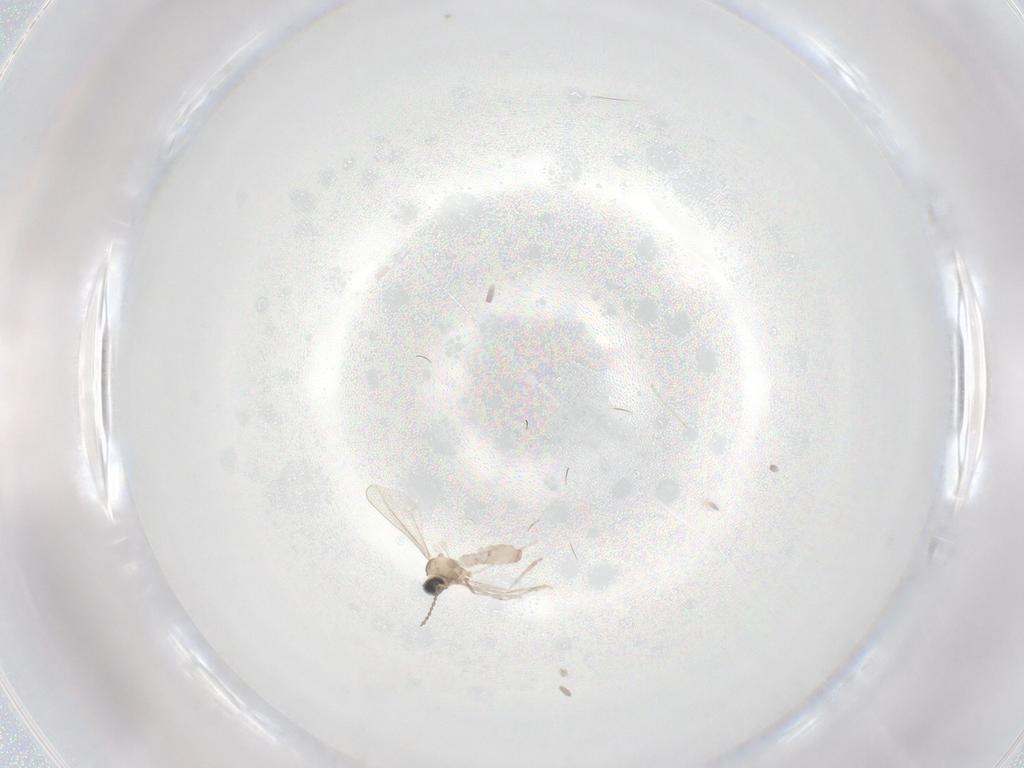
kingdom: Animalia
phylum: Arthropoda
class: Insecta
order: Diptera
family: Cecidomyiidae
